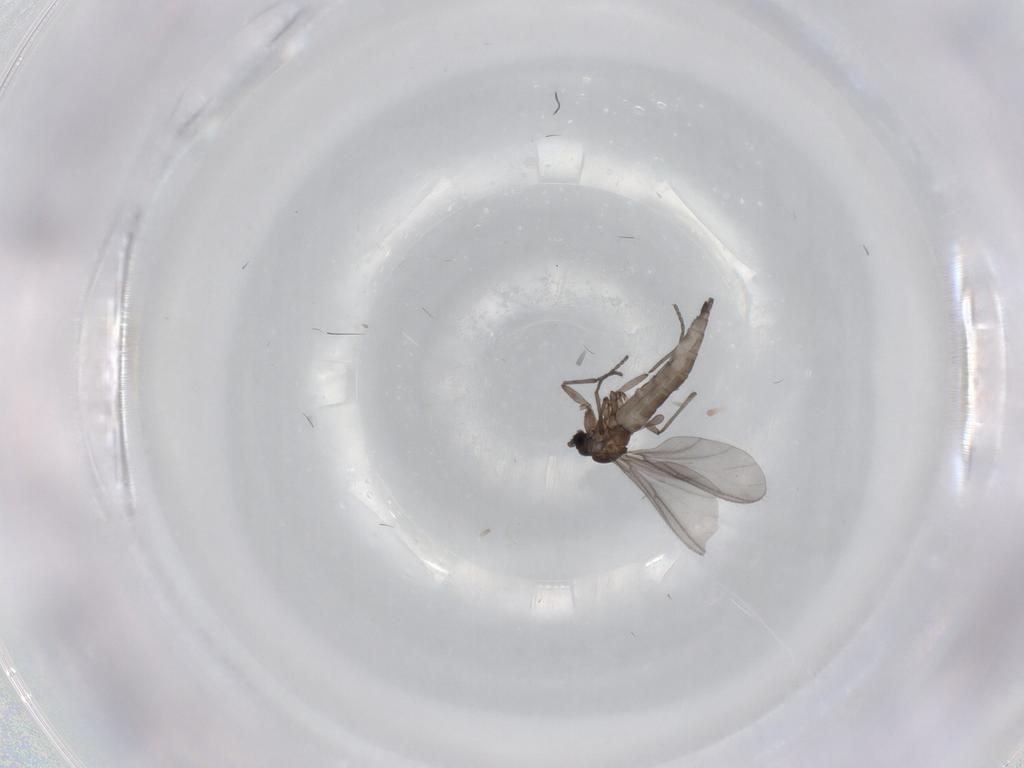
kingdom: Animalia
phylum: Arthropoda
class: Insecta
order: Diptera
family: Sciaridae
